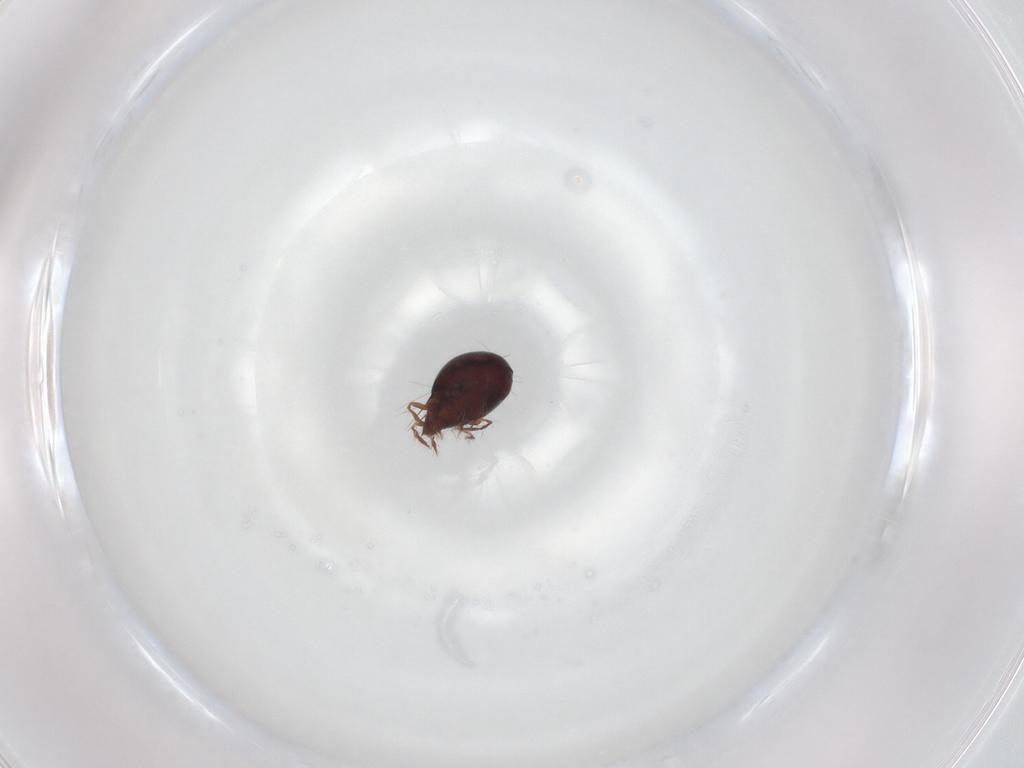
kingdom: Animalia
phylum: Arthropoda
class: Arachnida
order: Sarcoptiformes
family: Ceratoppiidae
